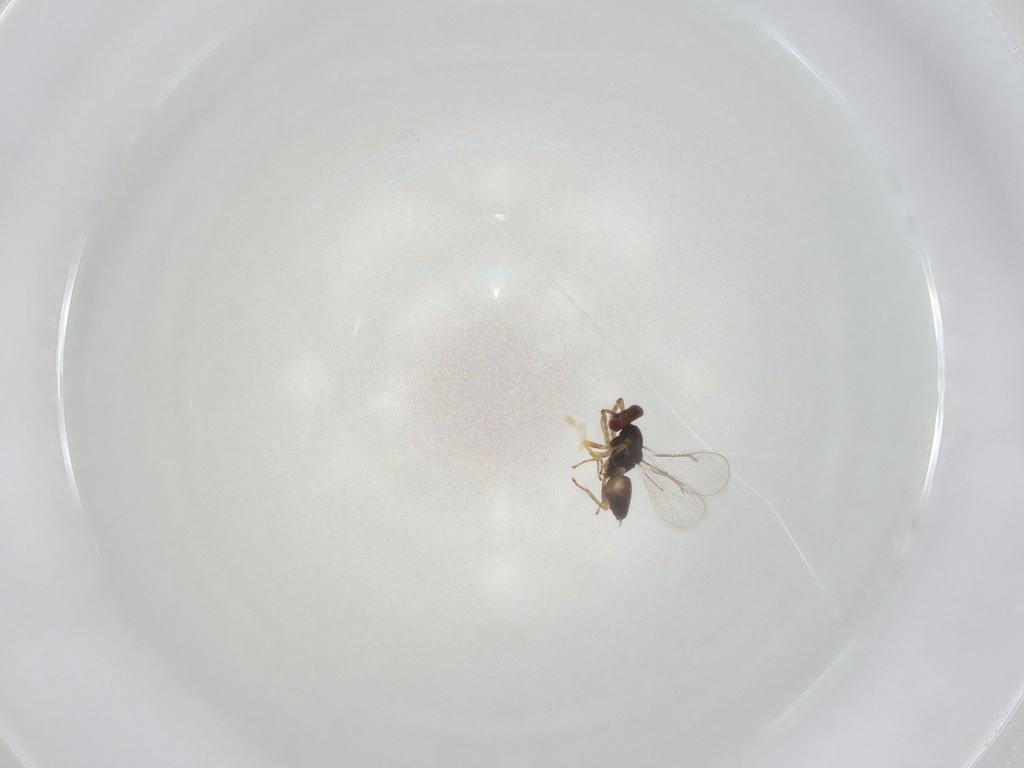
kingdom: Animalia
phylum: Arthropoda
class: Insecta
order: Hymenoptera
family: Eulophidae
